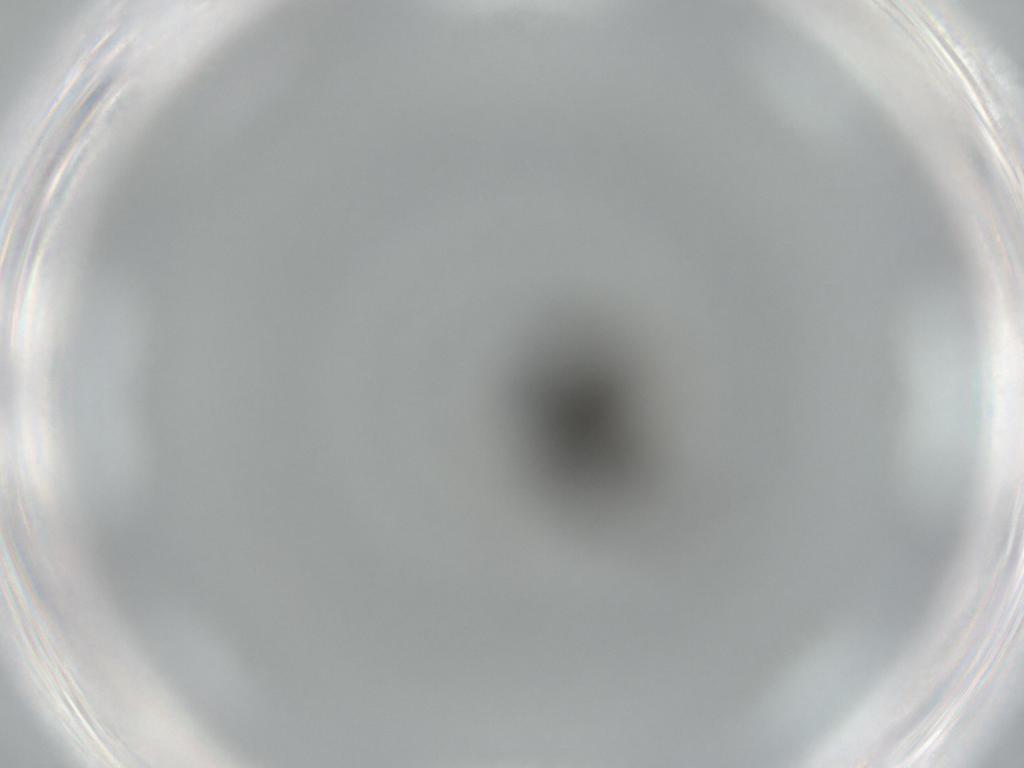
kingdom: Animalia
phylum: Arthropoda
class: Insecta
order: Diptera
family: Phoridae
